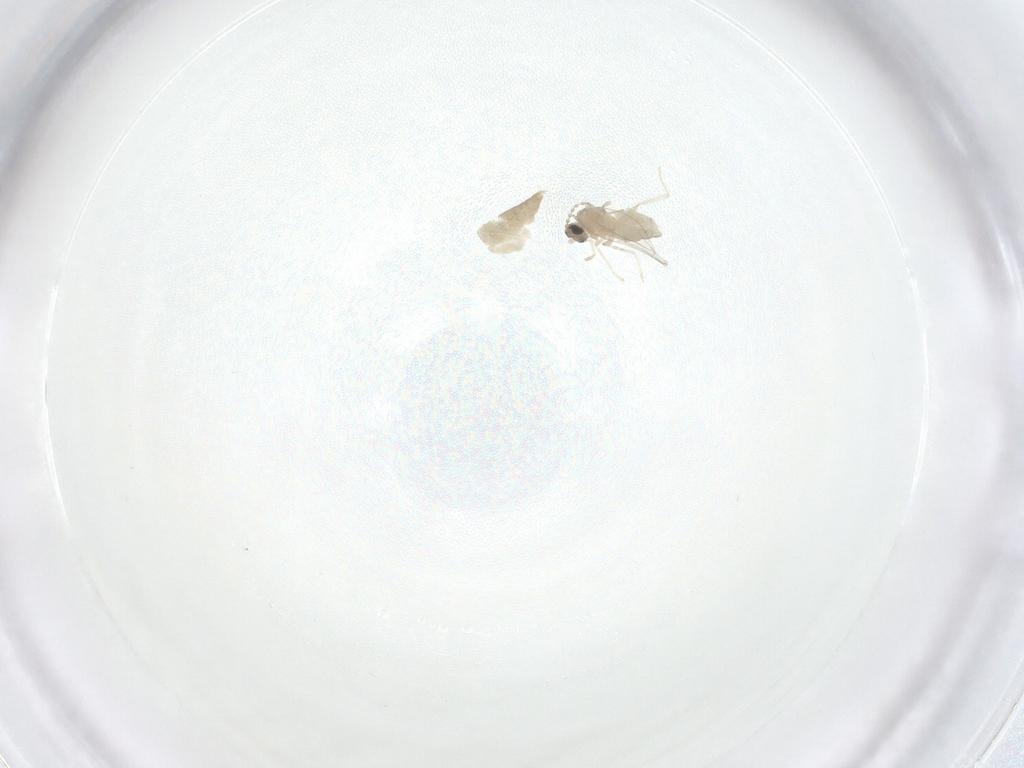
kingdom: Animalia
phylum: Arthropoda
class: Insecta
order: Diptera
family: Cecidomyiidae
